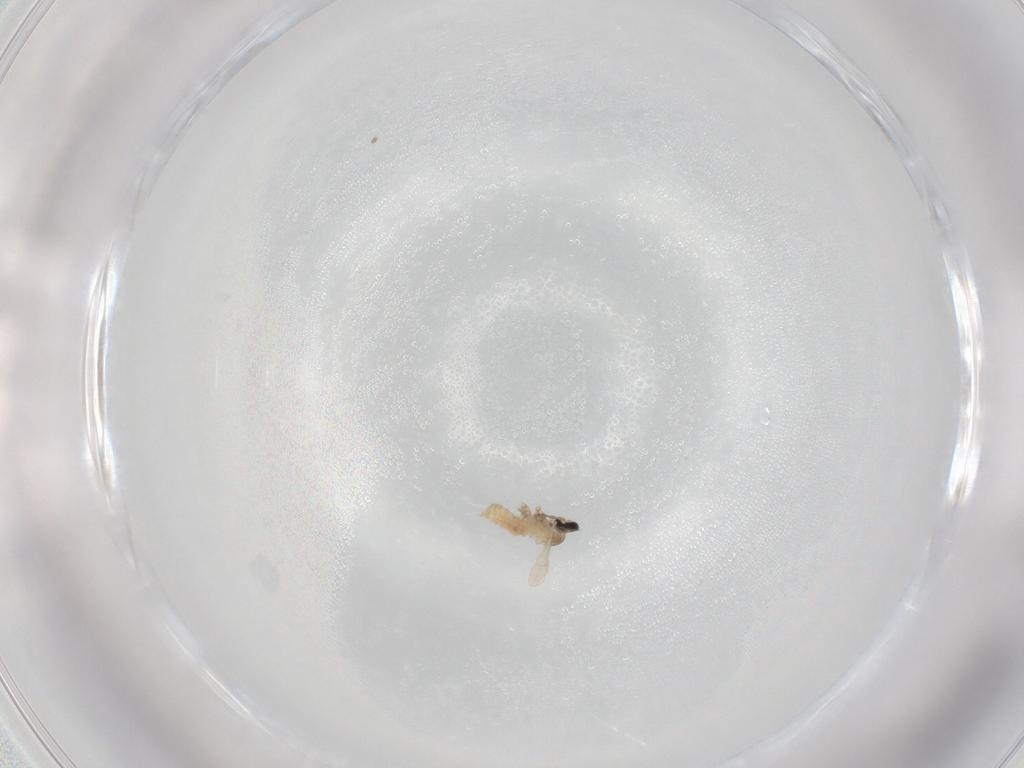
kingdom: Animalia
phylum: Arthropoda
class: Insecta
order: Diptera
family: Cecidomyiidae
